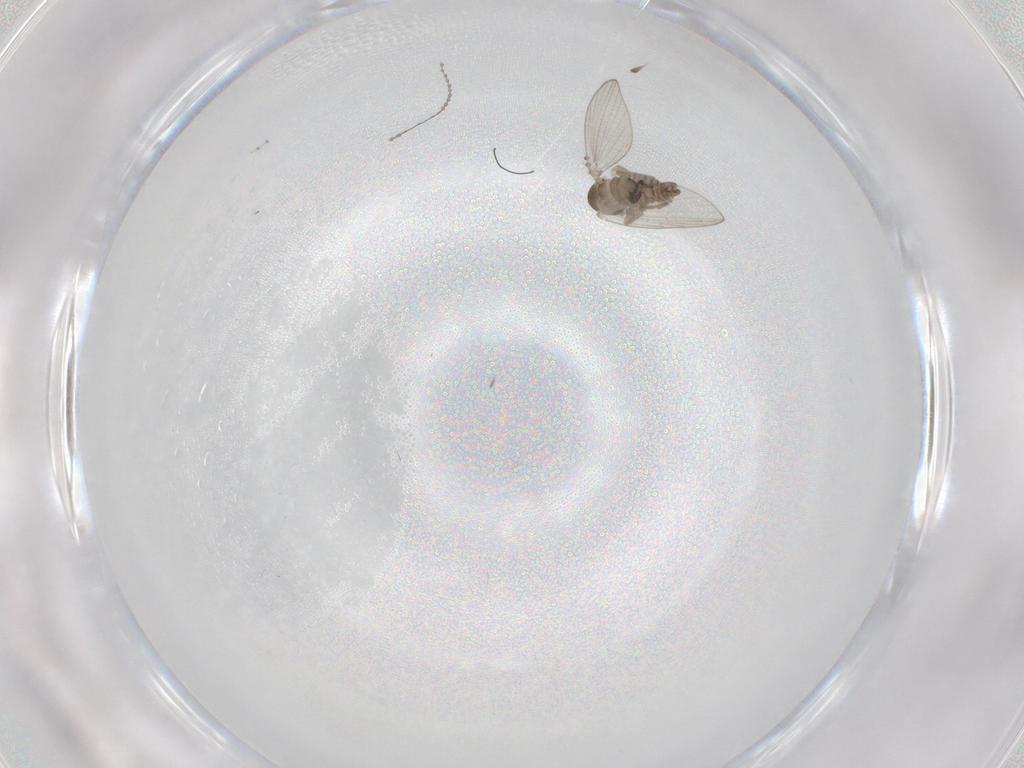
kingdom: Animalia
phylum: Arthropoda
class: Insecta
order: Diptera
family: Psychodidae
